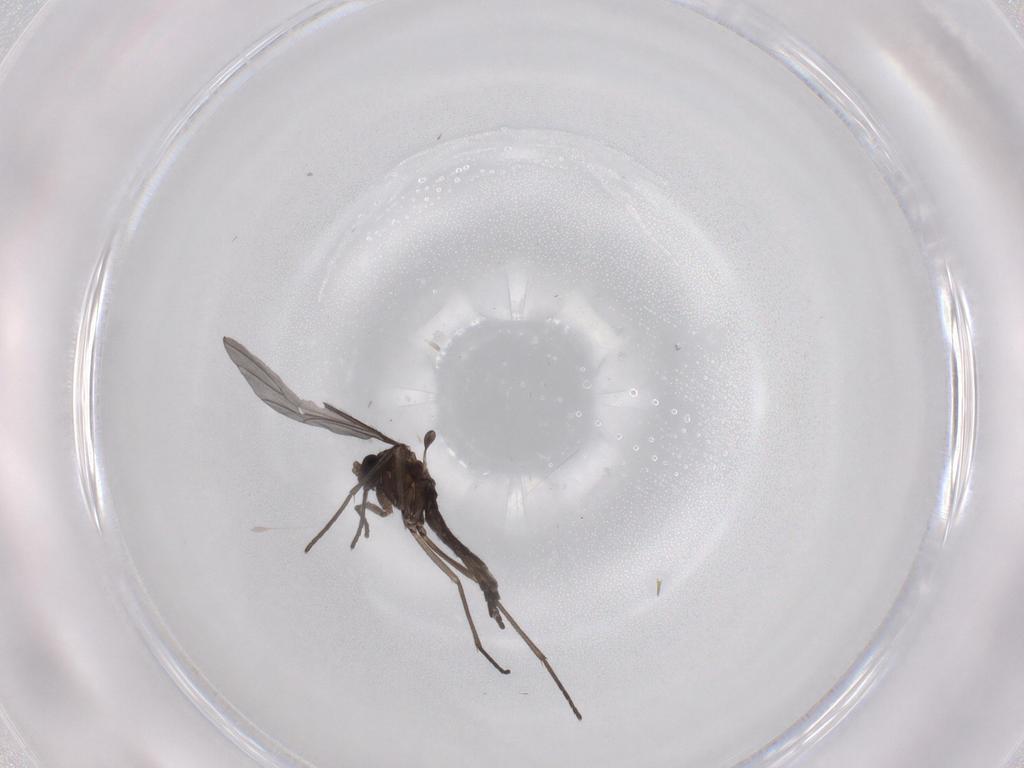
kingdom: Animalia
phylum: Arthropoda
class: Insecta
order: Diptera
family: Sciaridae
